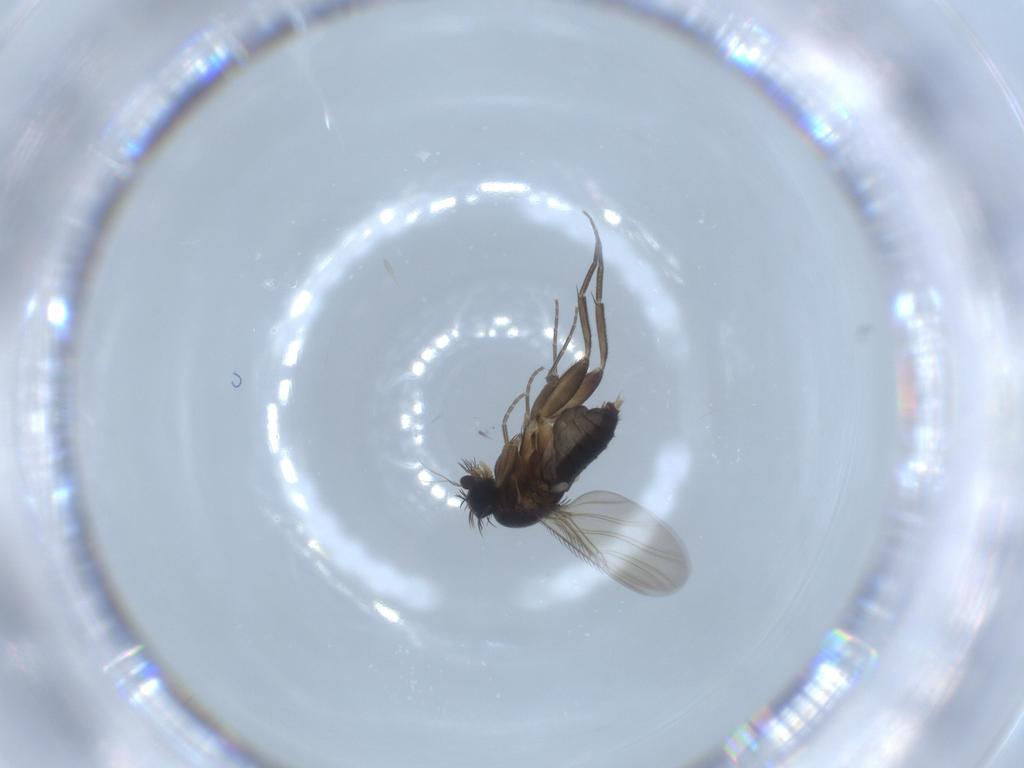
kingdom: Animalia
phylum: Arthropoda
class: Insecta
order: Diptera
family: Phoridae
